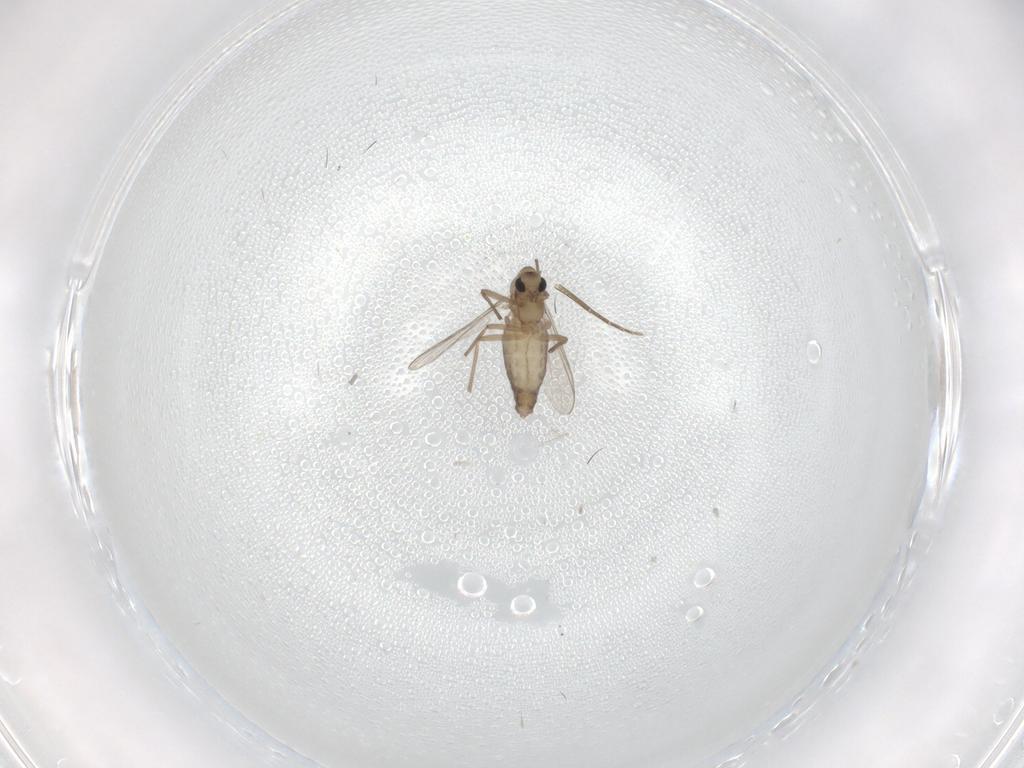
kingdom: Animalia
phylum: Arthropoda
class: Insecta
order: Diptera
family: Chironomidae
